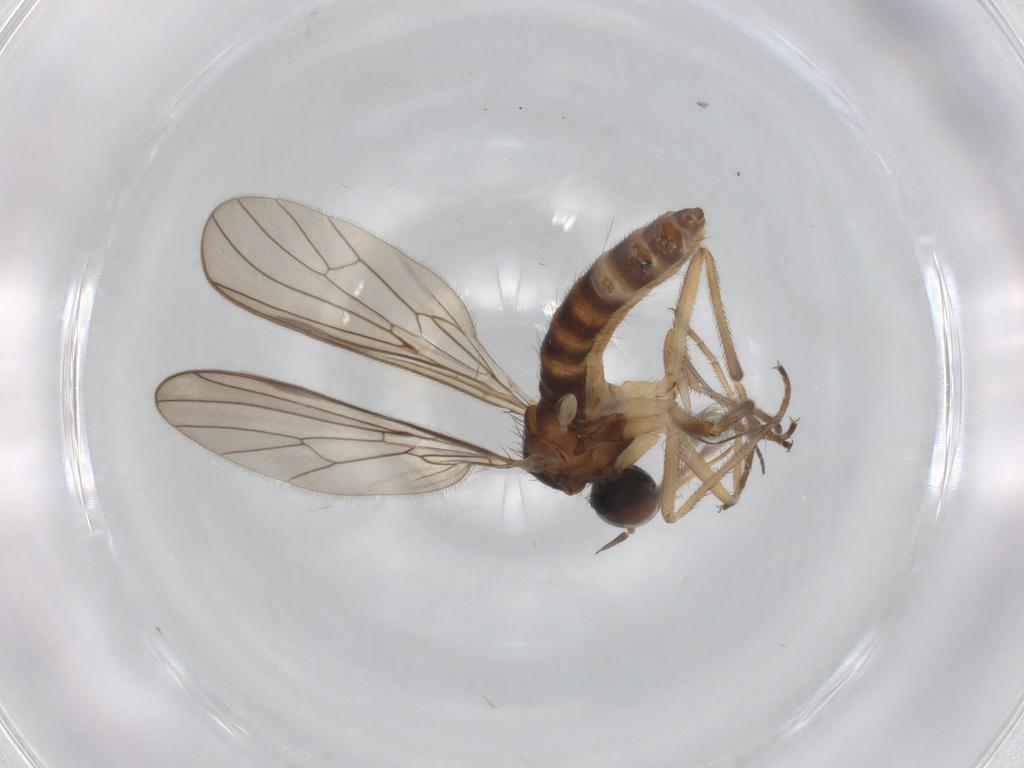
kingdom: Animalia
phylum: Arthropoda
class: Insecta
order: Diptera
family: Empididae
